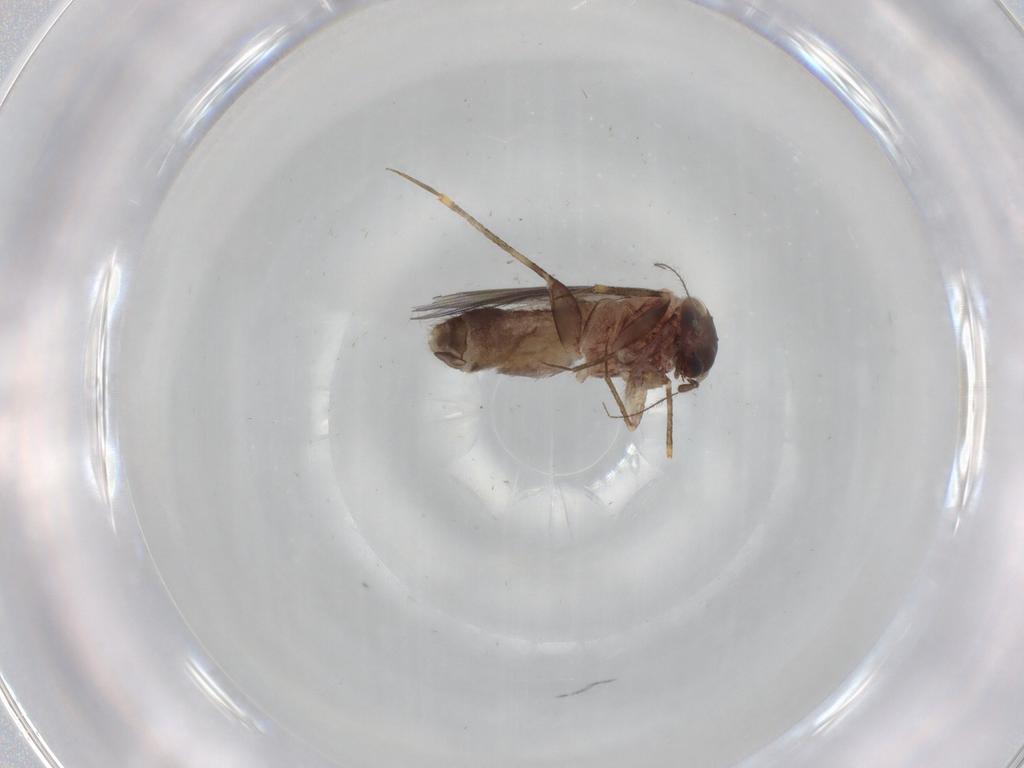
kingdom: Animalia
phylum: Arthropoda
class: Insecta
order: Psocodea
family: Lepidopsocidae
